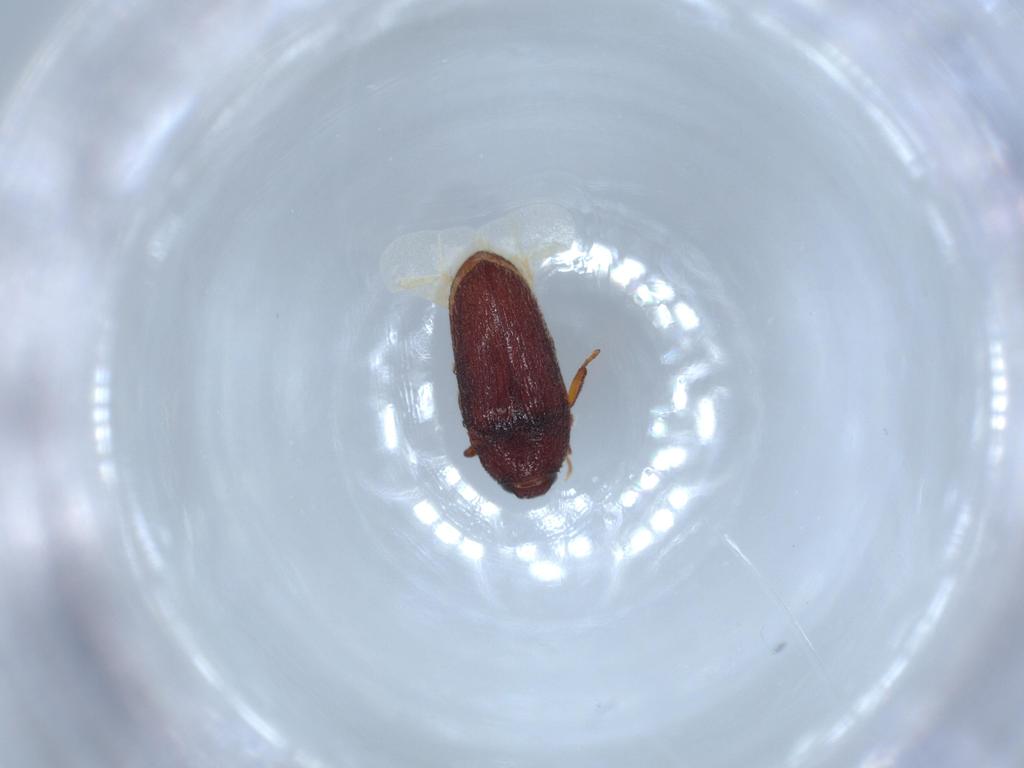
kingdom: Animalia
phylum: Arthropoda
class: Insecta
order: Coleoptera
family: Throscidae
